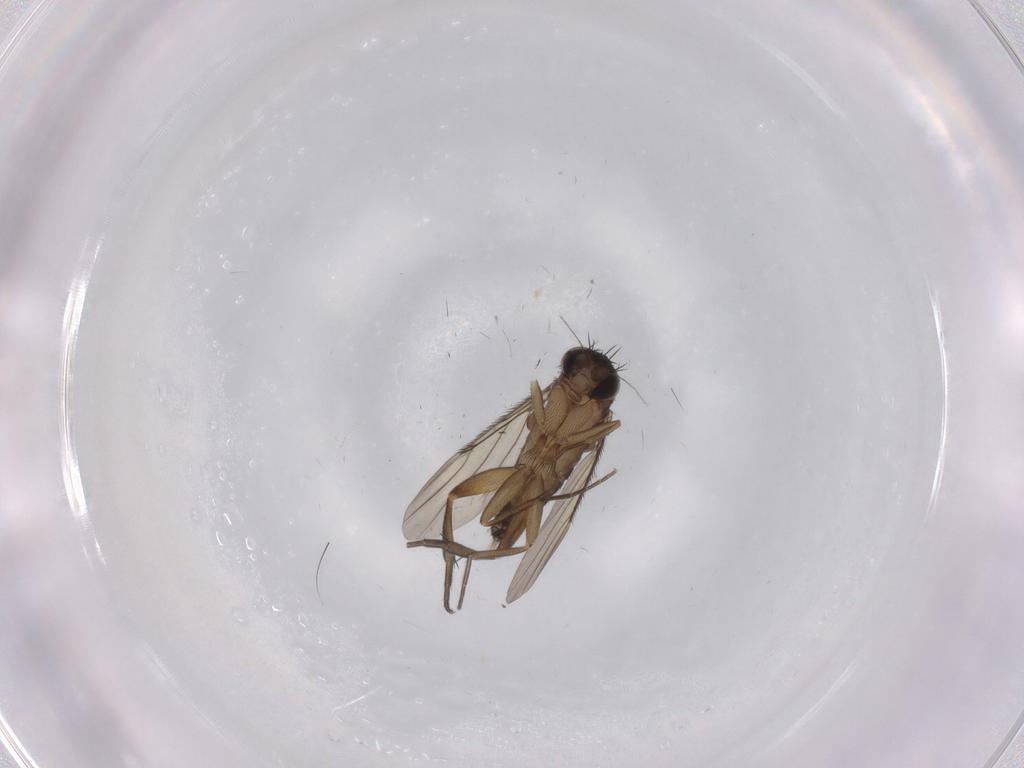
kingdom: Animalia
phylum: Arthropoda
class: Insecta
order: Diptera
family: Phoridae
